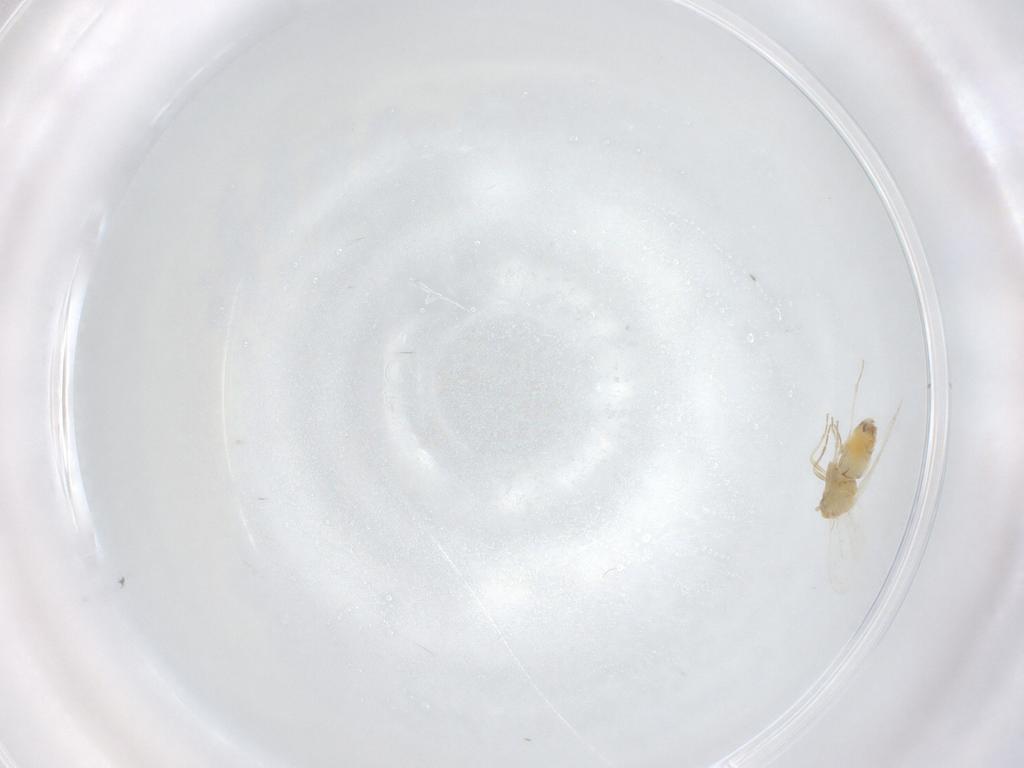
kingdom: Animalia
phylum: Arthropoda
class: Insecta
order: Hemiptera
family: Aleyrodidae
